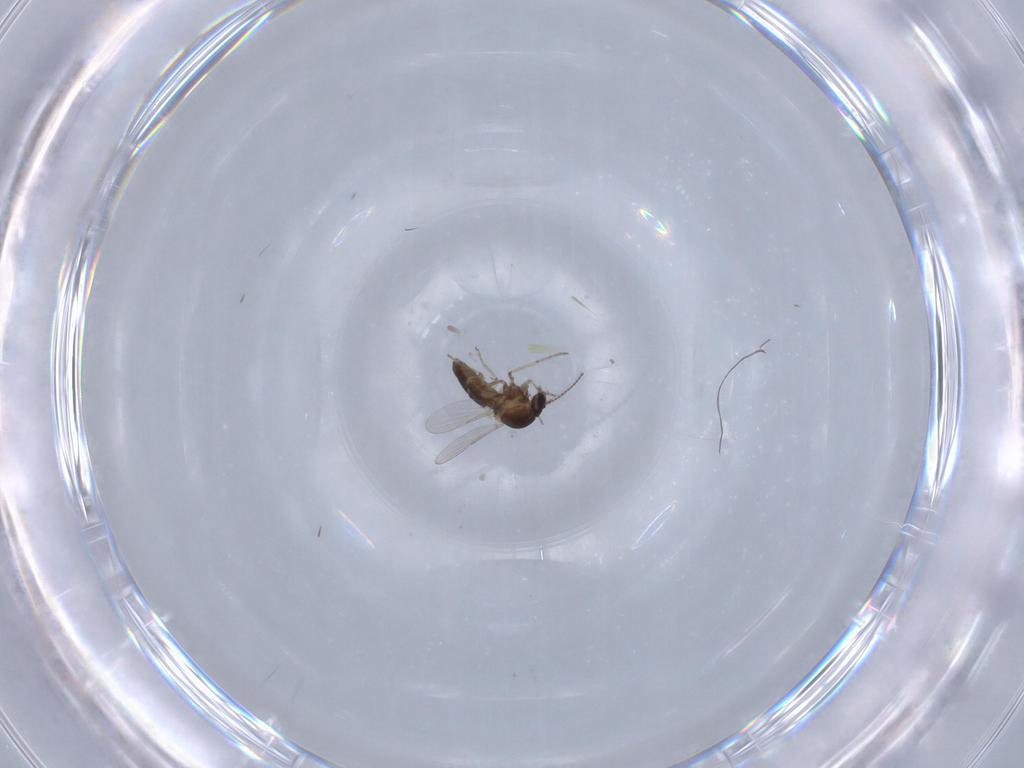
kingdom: Animalia
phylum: Arthropoda
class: Insecta
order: Diptera
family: Ceratopogonidae
